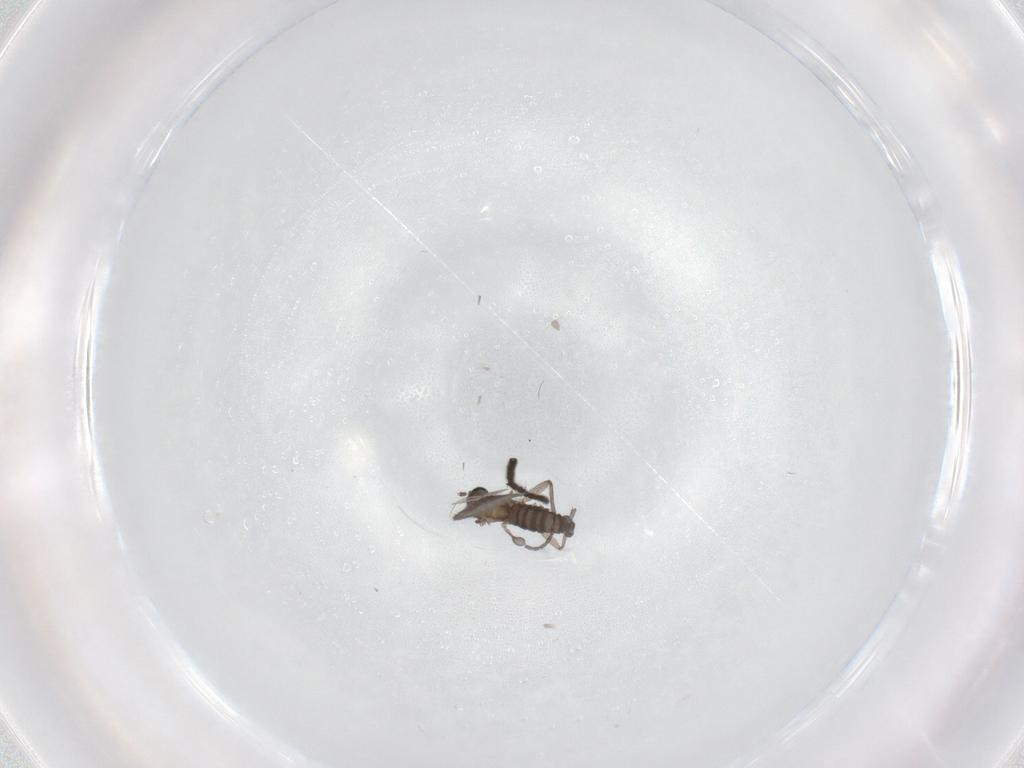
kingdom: Animalia
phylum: Arthropoda
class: Insecta
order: Diptera
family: Sciaridae
